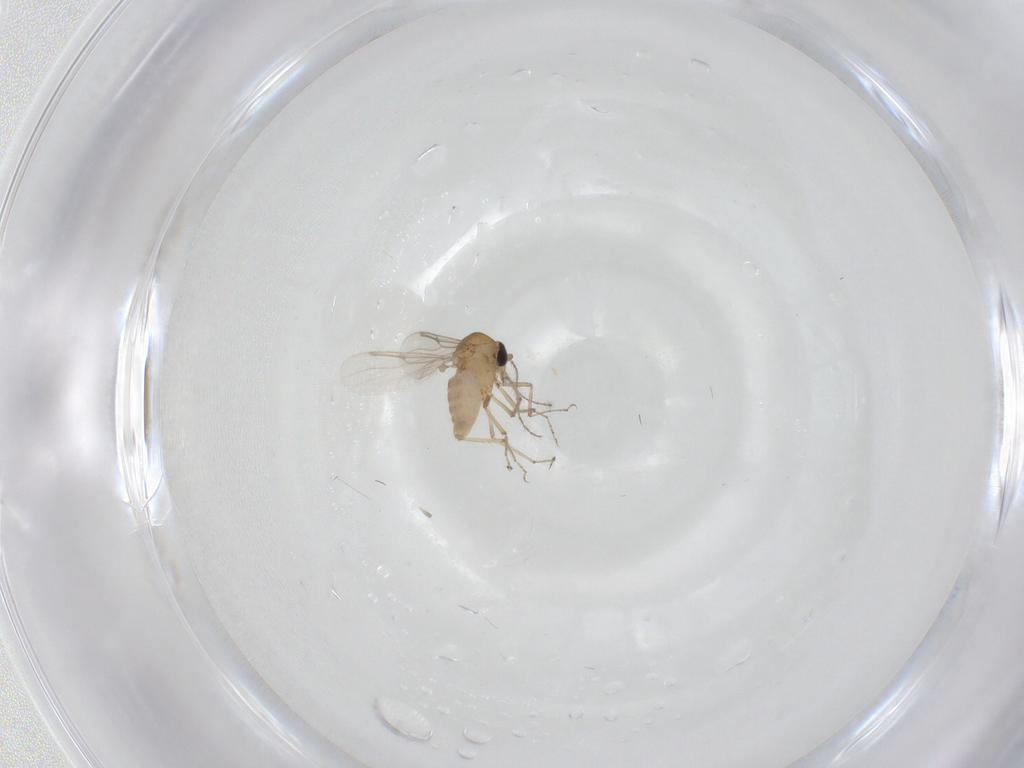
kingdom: Animalia
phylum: Arthropoda
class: Insecta
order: Diptera
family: Ceratopogonidae
